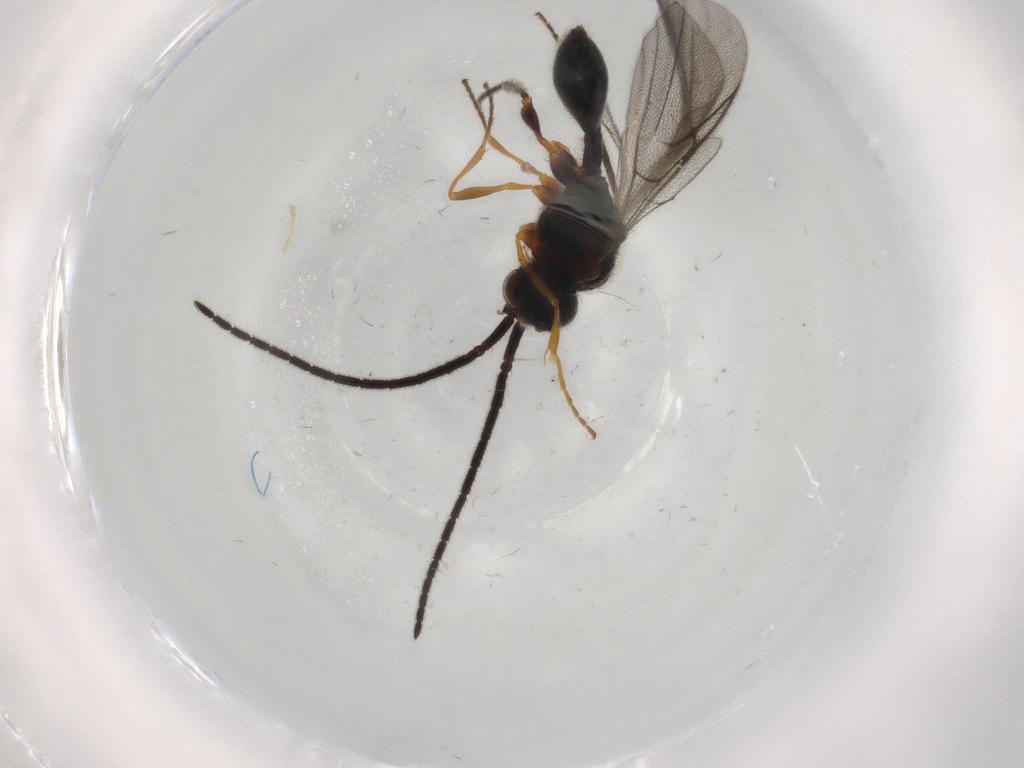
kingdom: Animalia
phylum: Arthropoda
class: Insecta
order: Hymenoptera
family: Diapriidae
